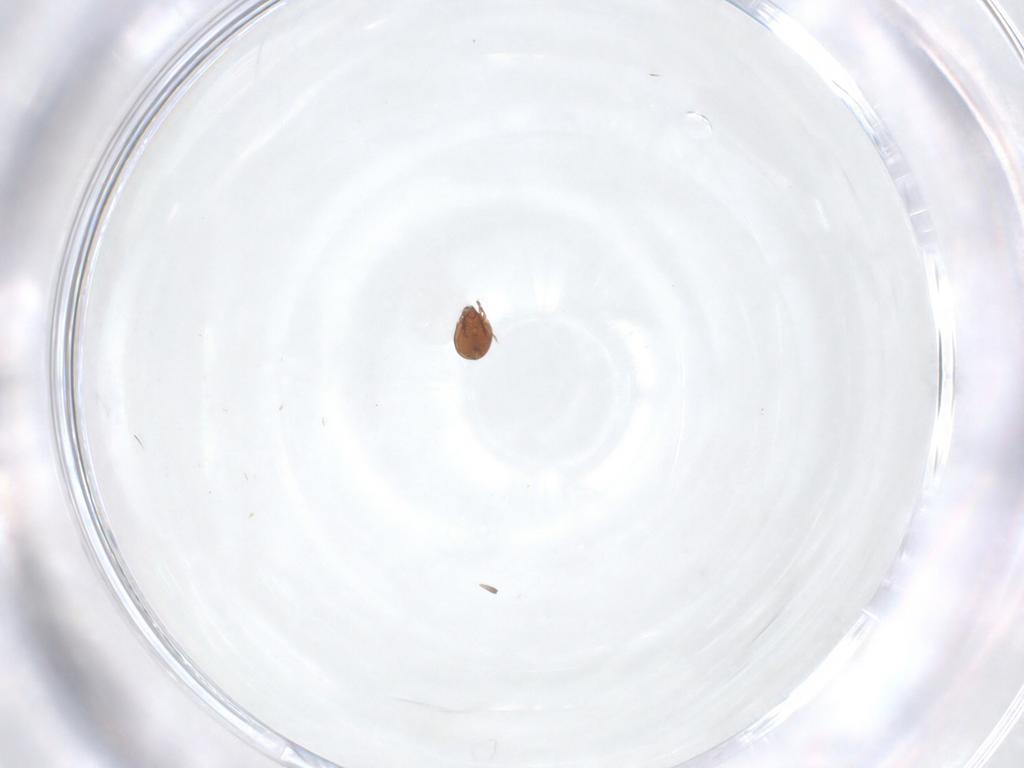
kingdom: Animalia
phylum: Arthropoda
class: Arachnida
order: Sarcoptiformes
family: Scheloribatidae
